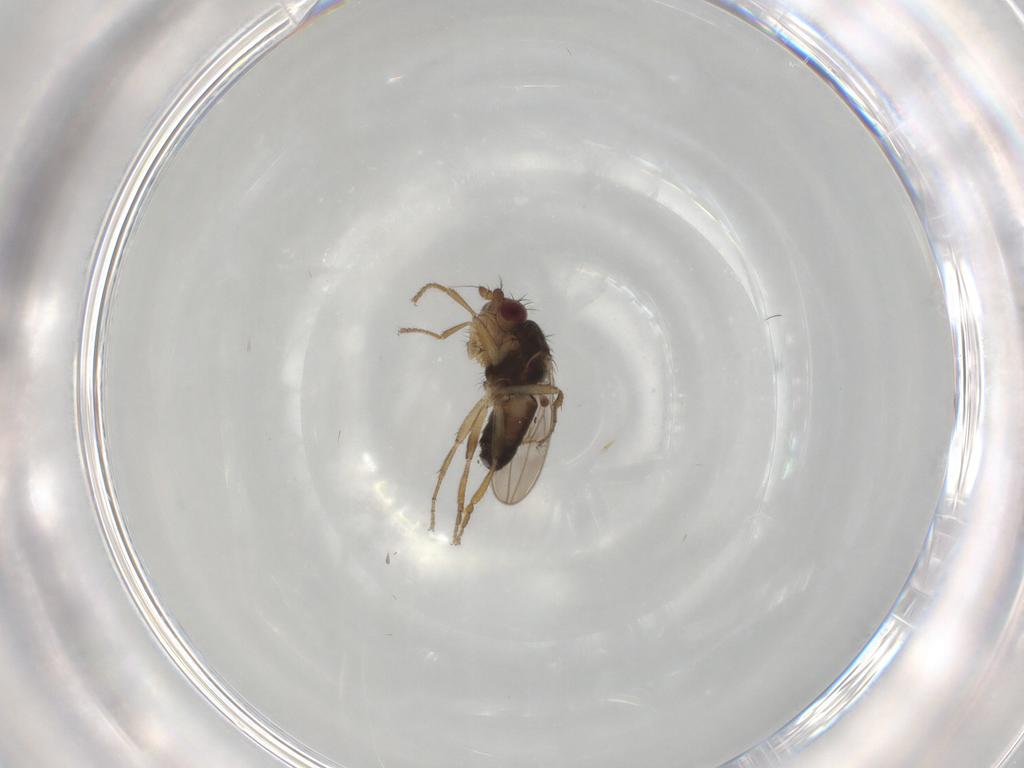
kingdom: Animalia
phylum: Arthropoda
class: Insecta
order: Diptera
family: Sphaeroceridae
